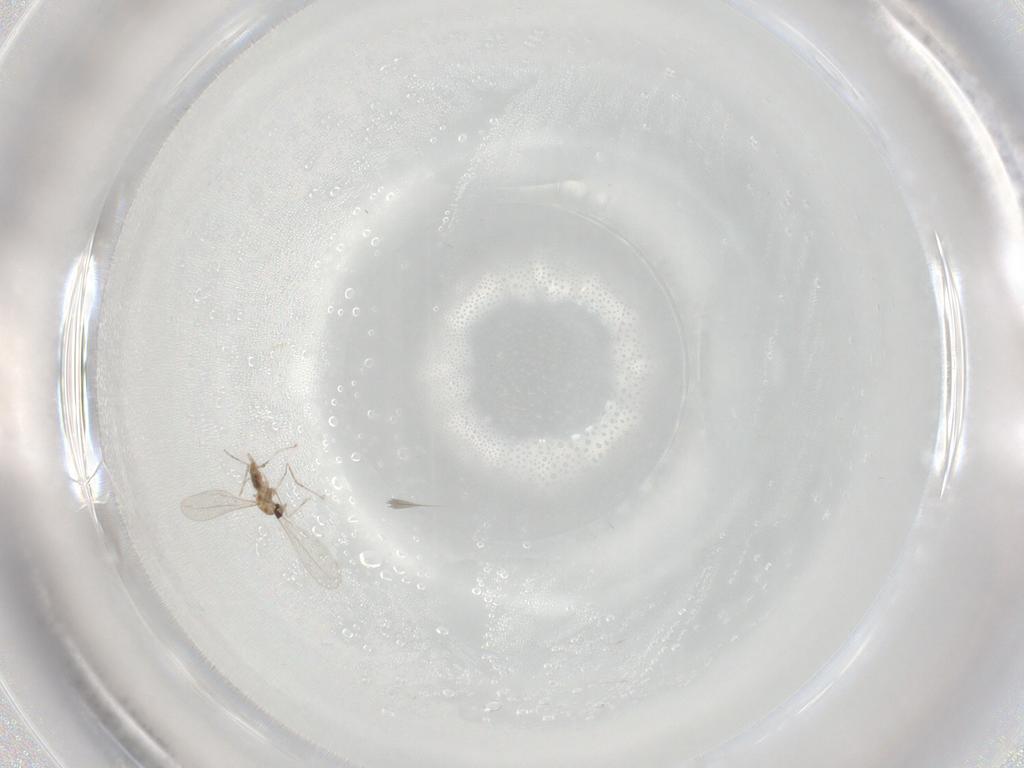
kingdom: Animalia
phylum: Arthropoda
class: Insecta
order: Diptera
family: Cecidomyiidae
